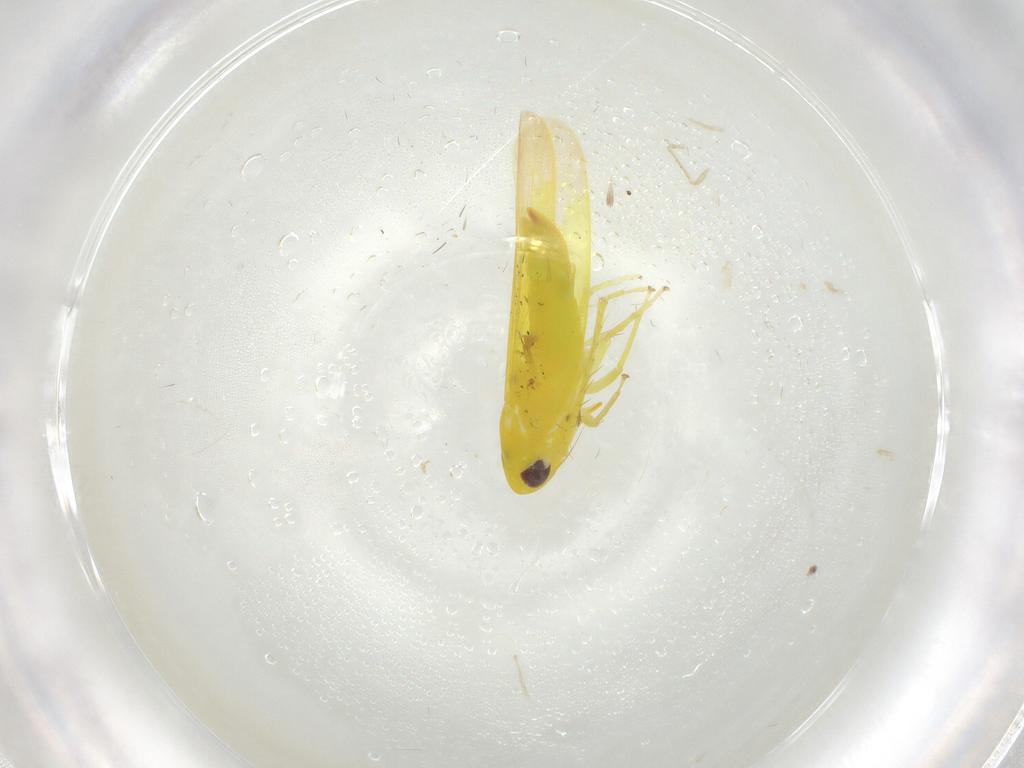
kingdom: Animalia
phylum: Arthropoda
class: Insecta
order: Hemiptera
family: Cicadellidae
